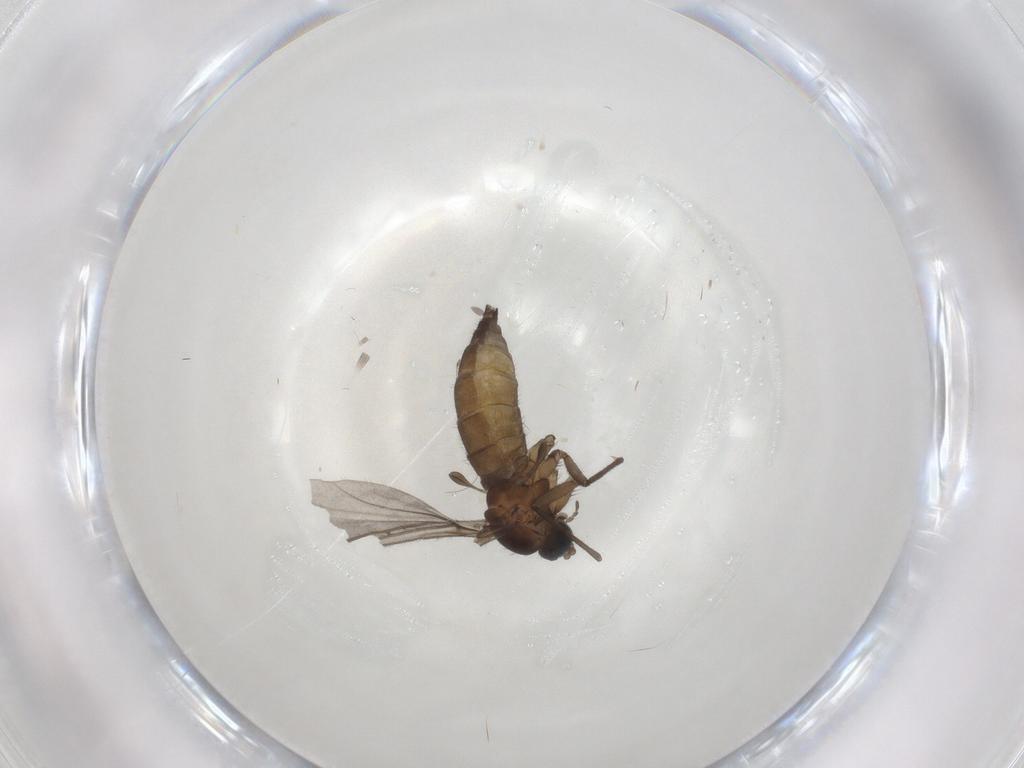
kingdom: Animalia
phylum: Arthropoda
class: Insecta
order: Diptera
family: Sciaridae
